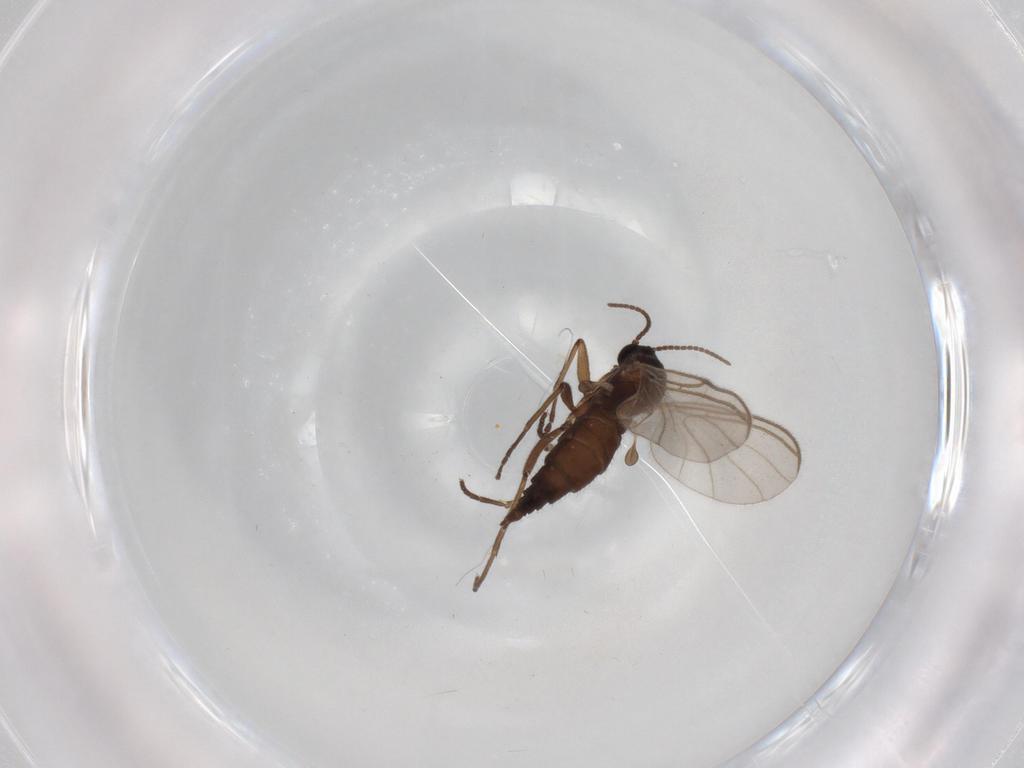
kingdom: Animalia
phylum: Arthropoda
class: Insecta
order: Diptera
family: Sciaridae
